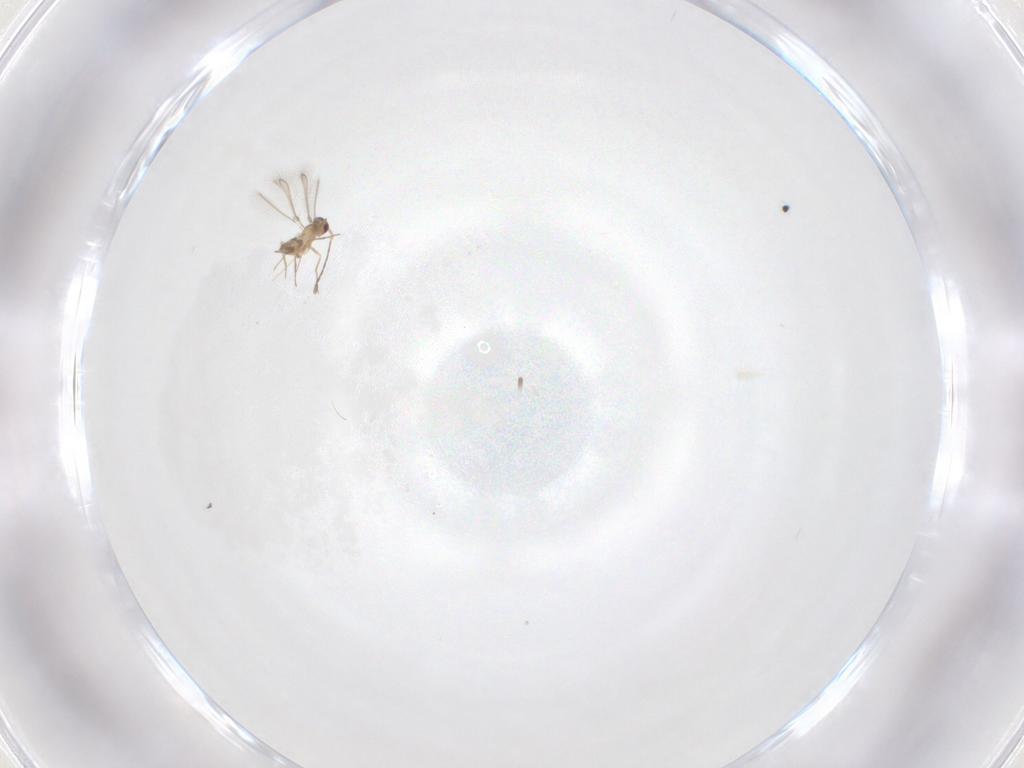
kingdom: Animalia
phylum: Arthropoda
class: Insecta
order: Hymenoptera
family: Mymaridae
